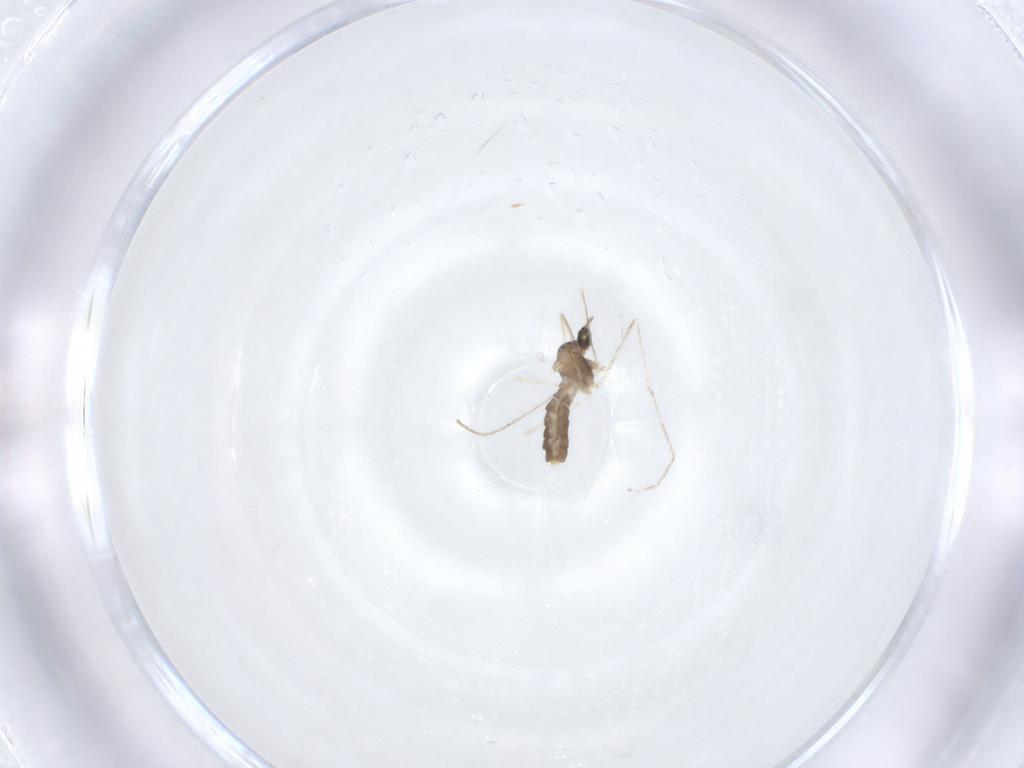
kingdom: Animalia
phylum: Arthropoda
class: Insecta
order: Diptera
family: Cecidomyiidae
